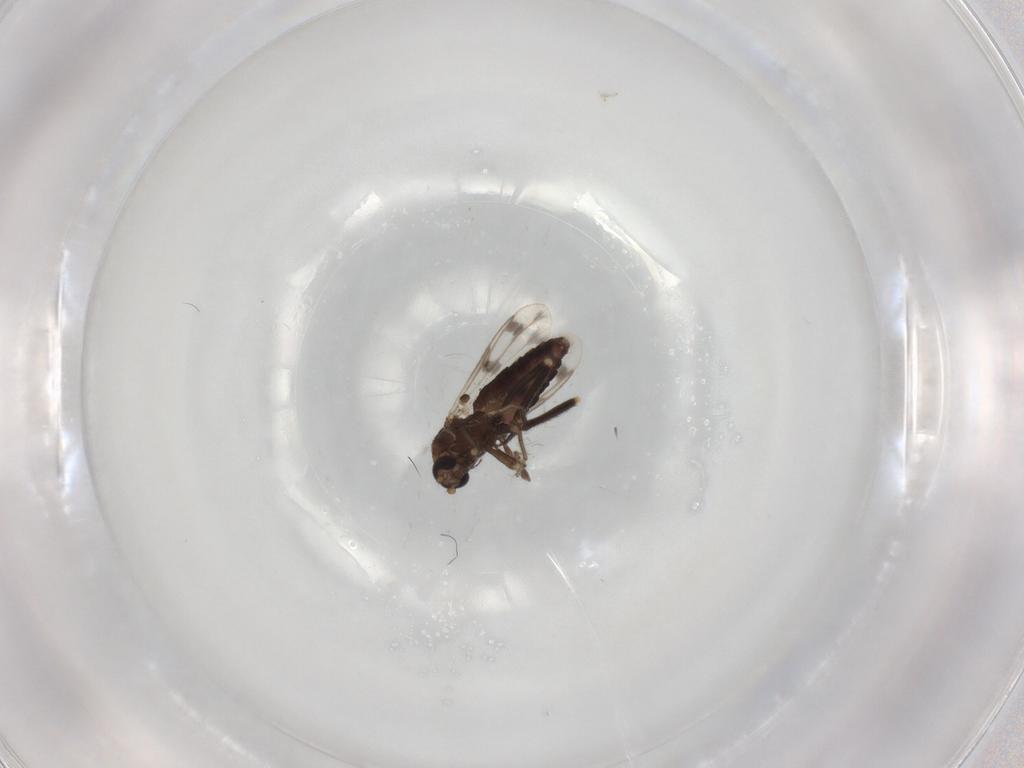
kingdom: Animalia
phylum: Arthropoda
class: Insecta
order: Diptera
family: Ceratopogonidae
